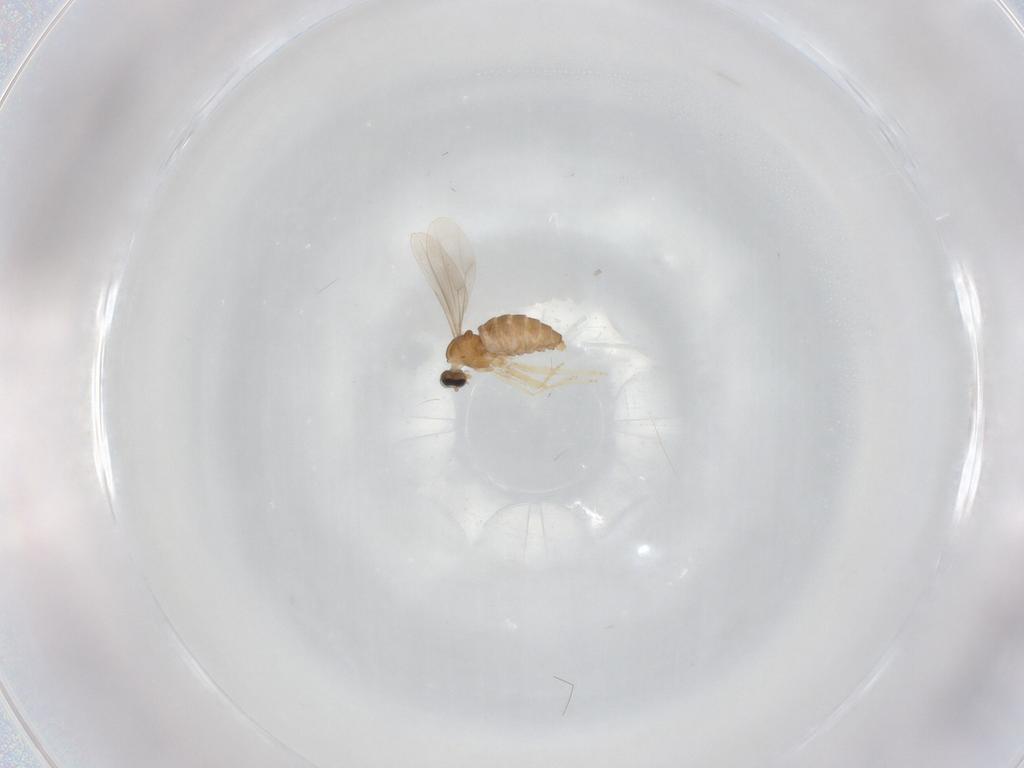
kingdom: Animalia
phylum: Arthropoda
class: Insecta
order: Diptera
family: Cecidomyiidae
